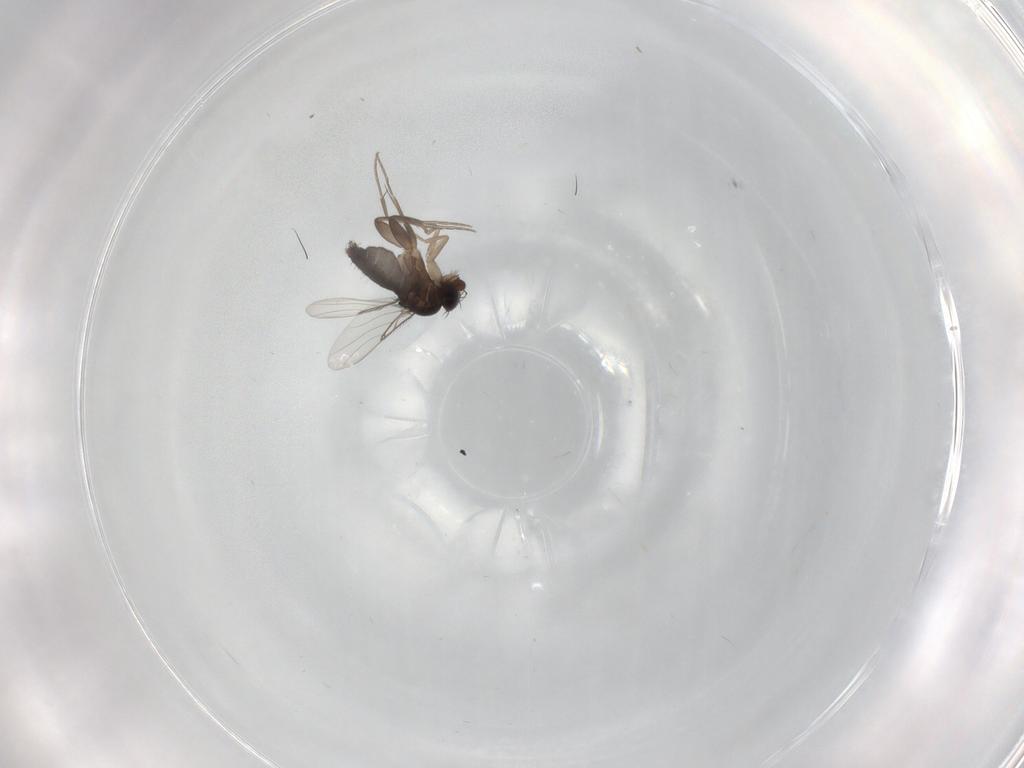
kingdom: Animalia
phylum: Arthropoda
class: Insecta
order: Diptera
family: Phoridae
